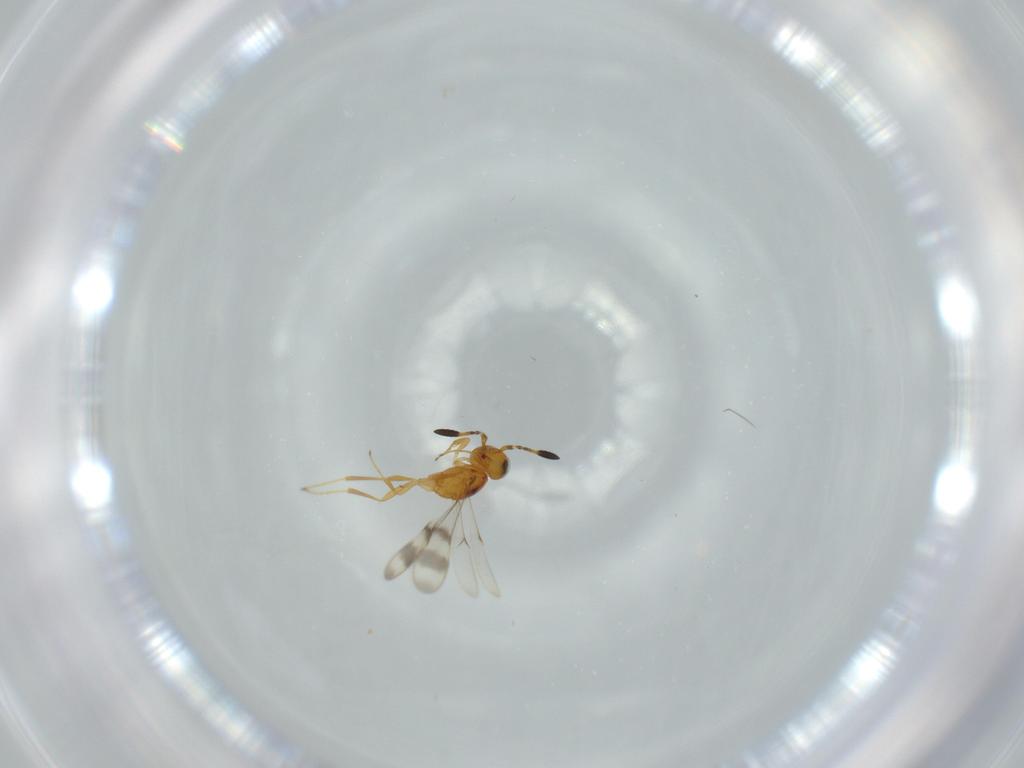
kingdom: Animalia
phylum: Arthropoda
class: Insecta
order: Hymenoptera
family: Scelionidae
